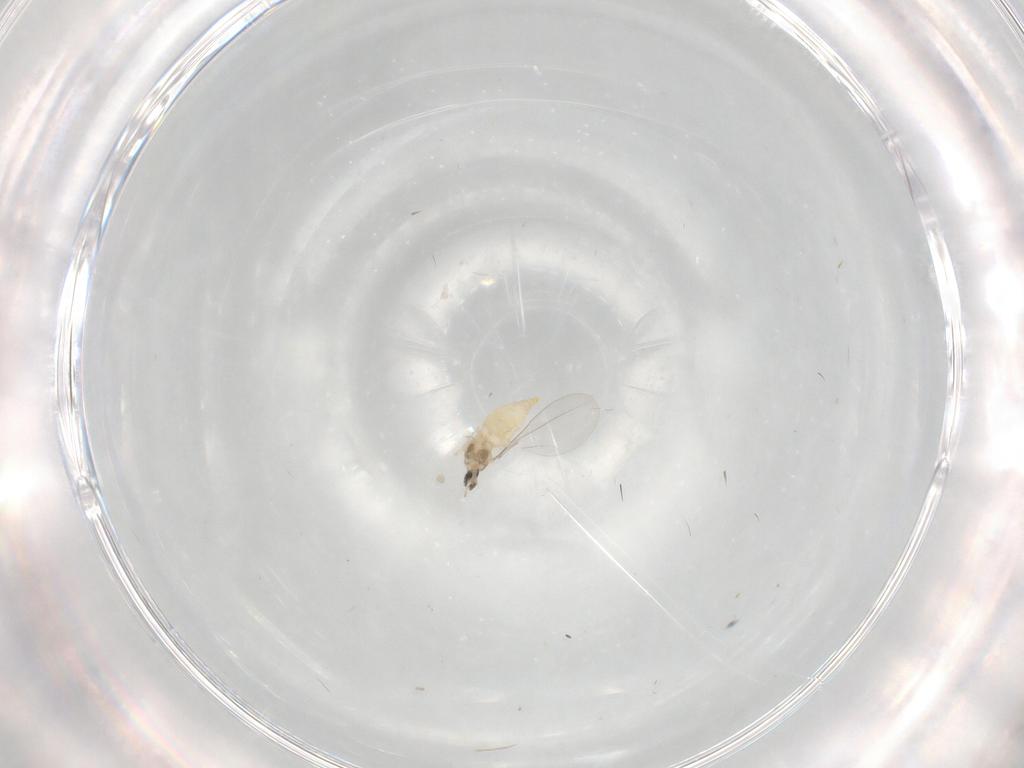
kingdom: Animalia
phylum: Arthropoda
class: Insecta
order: Diptera
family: Cecidomyiidae
